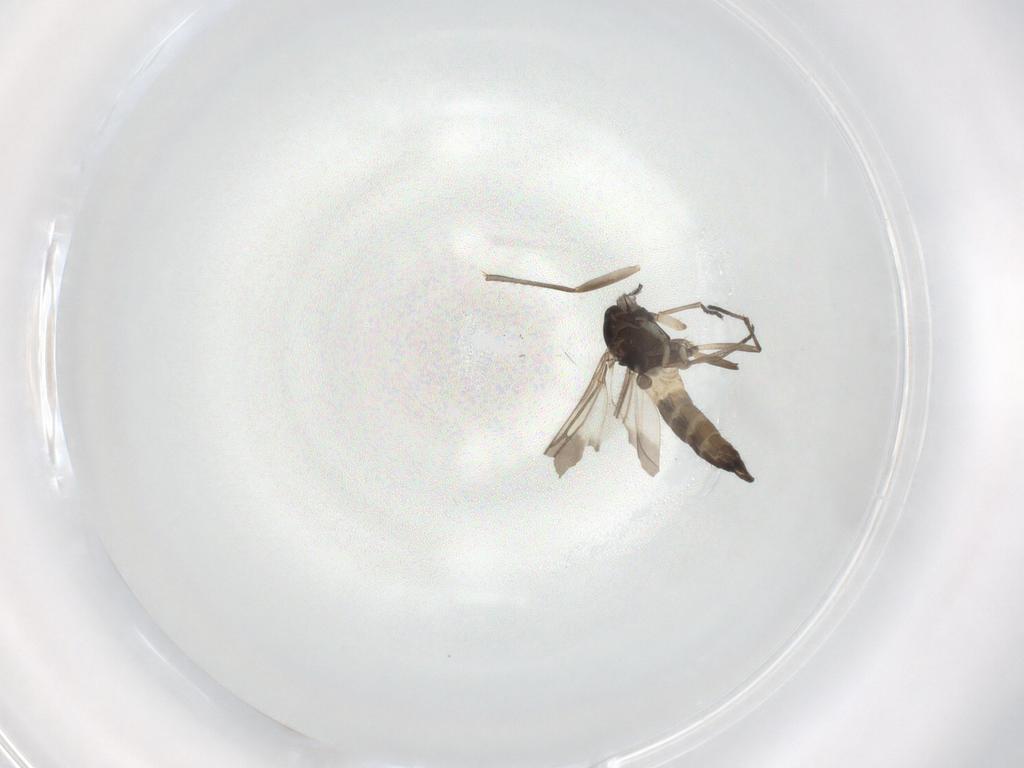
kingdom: Animalia
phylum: Arthropoda
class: Insecta
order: Diptera
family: Sciaridae
